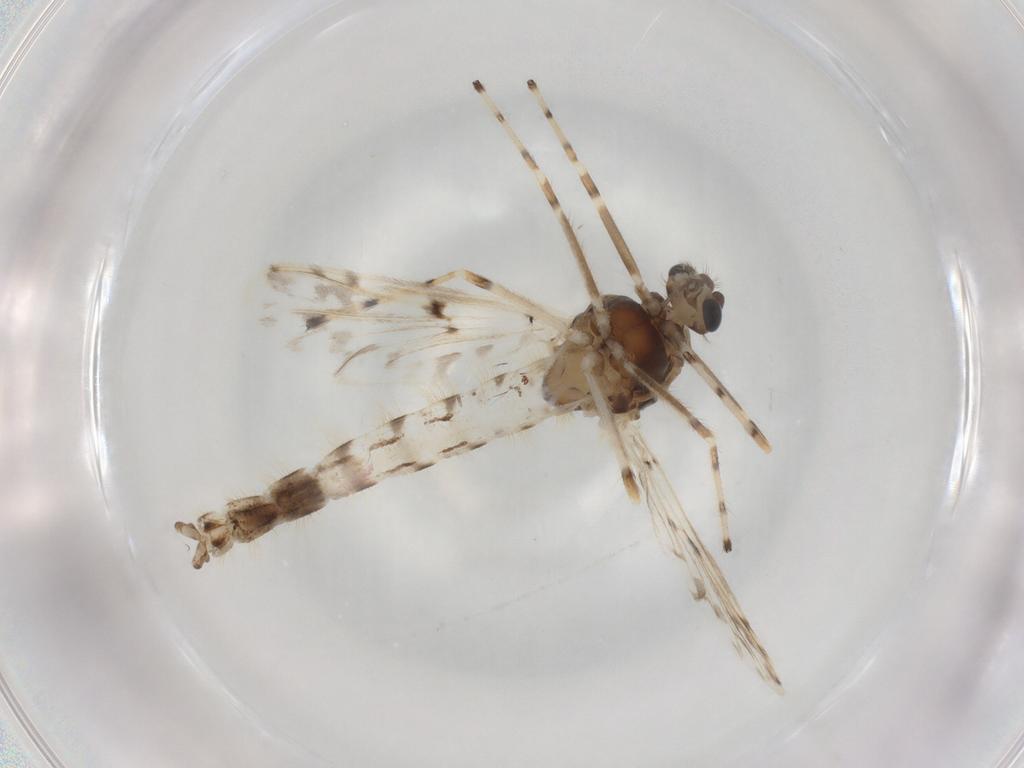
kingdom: Animalia
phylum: Arthropoda
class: Insecta
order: Diptera
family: Chironomidae
